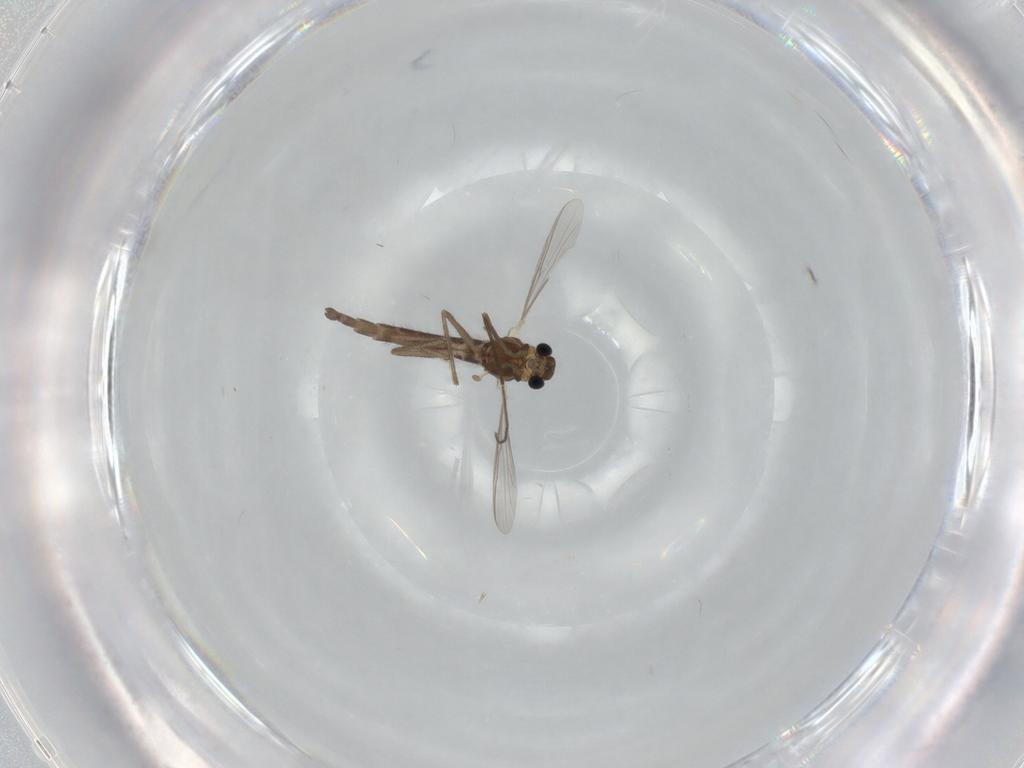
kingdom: Animalia
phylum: Arthropoda
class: Insecta
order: Diptera
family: Chironomidae
